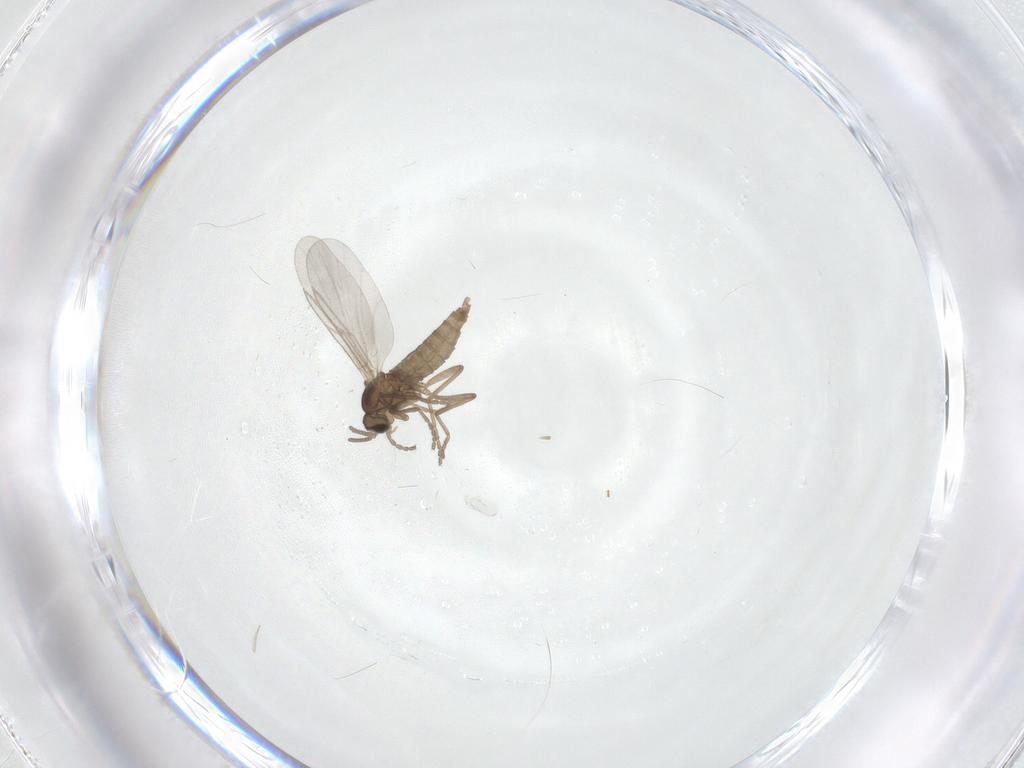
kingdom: Animalia
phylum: Arthropoda
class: Insecta
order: Diptera
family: Cecidomyiidae
